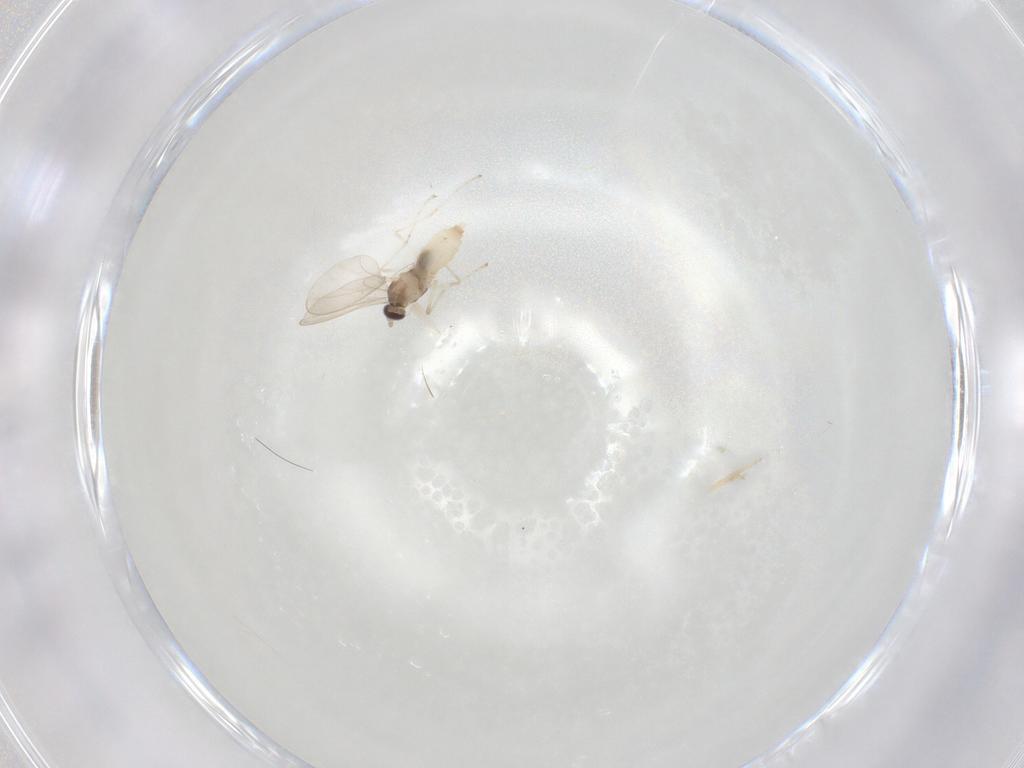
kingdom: Animalia
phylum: Arthropoda
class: Insecta
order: Diptera
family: Cecidomyiidae
